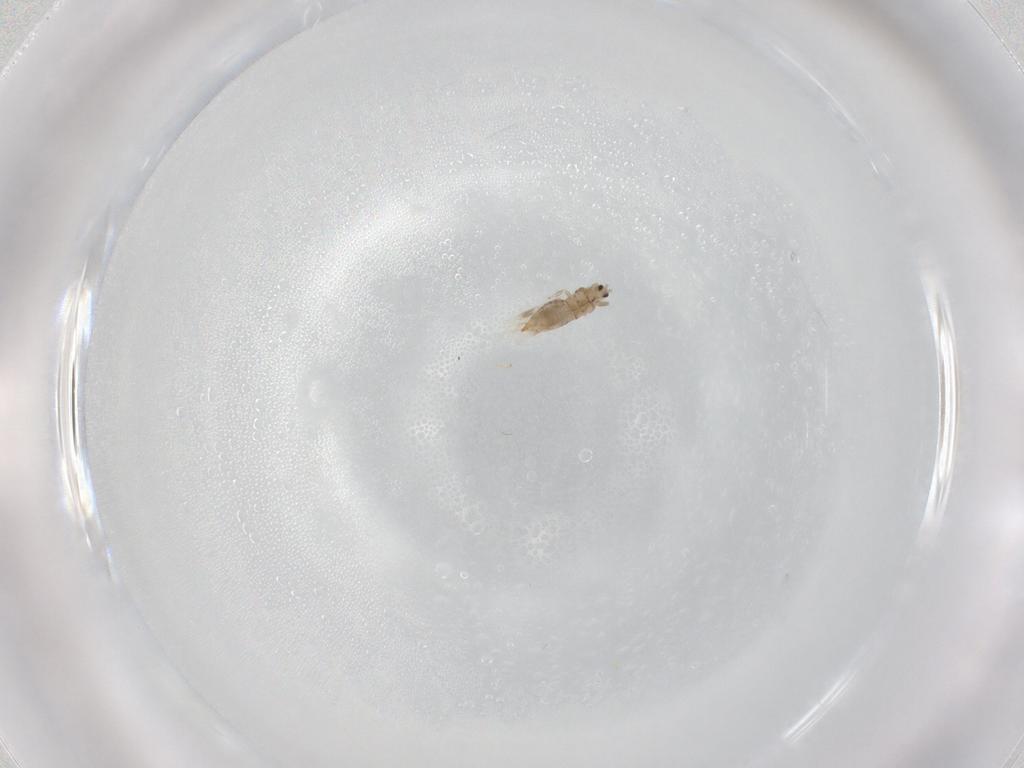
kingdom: Animalia
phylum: Arthropoda
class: Insecta
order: Thysanoptera
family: Thripidae
